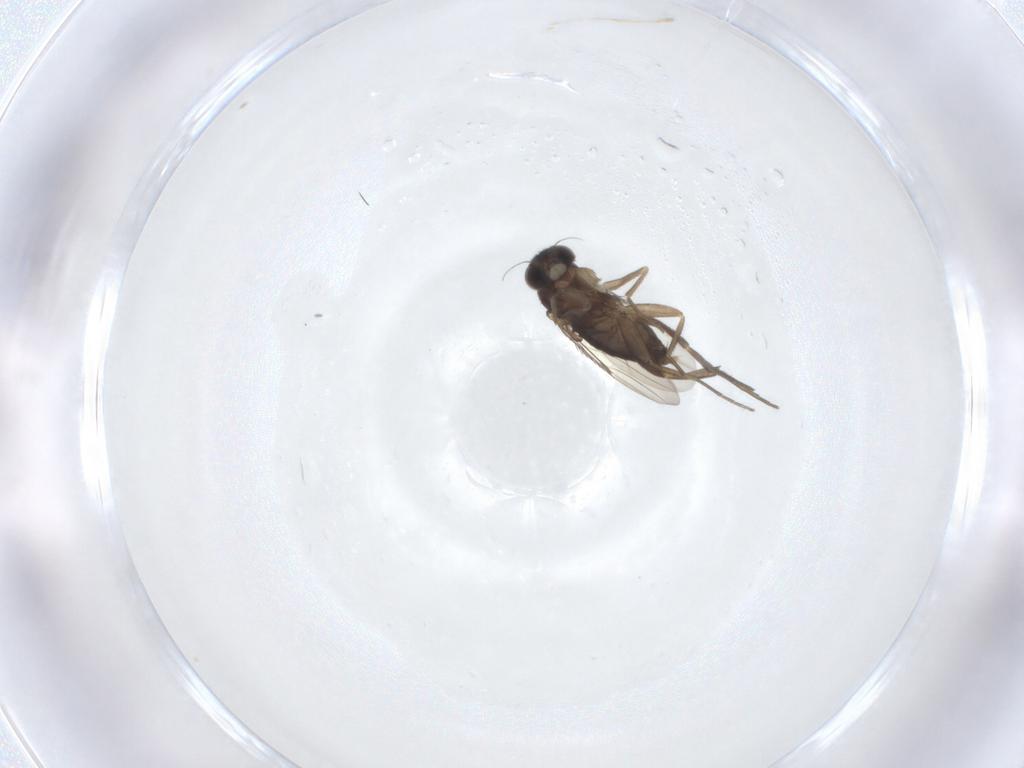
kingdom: Animalia
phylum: Arthropoda
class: Insecta
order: Diptera
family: Phoridae
